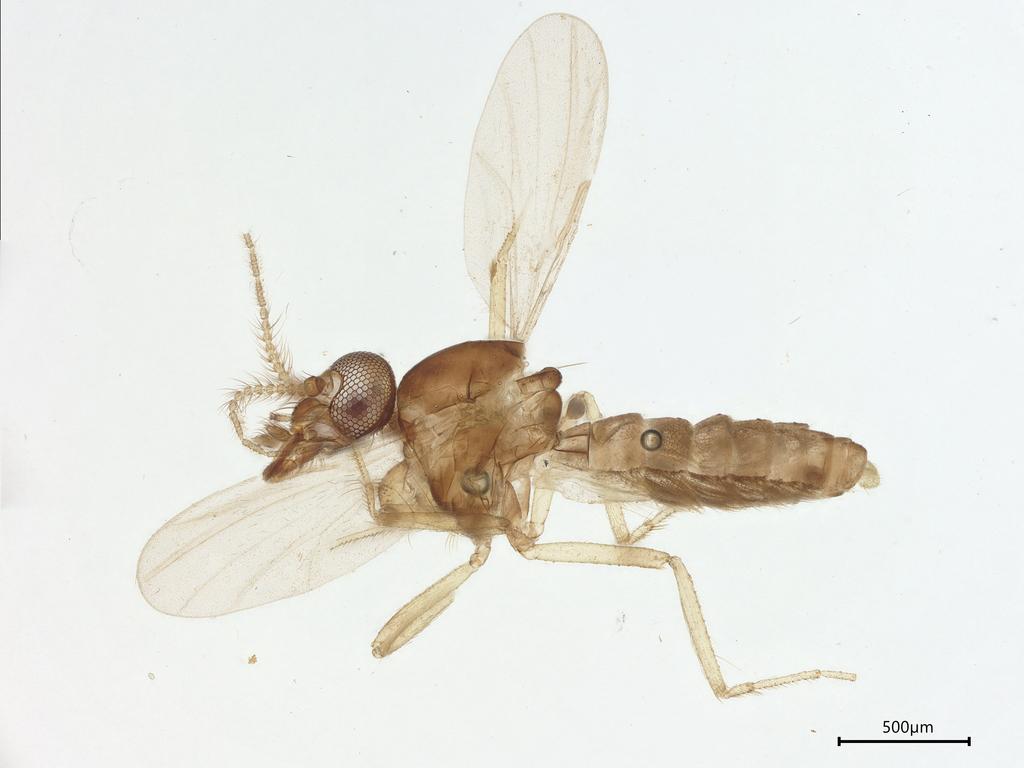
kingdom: Animalia
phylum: Arthropoda
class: Insecta
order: Diptera
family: Ceratopogonidae
